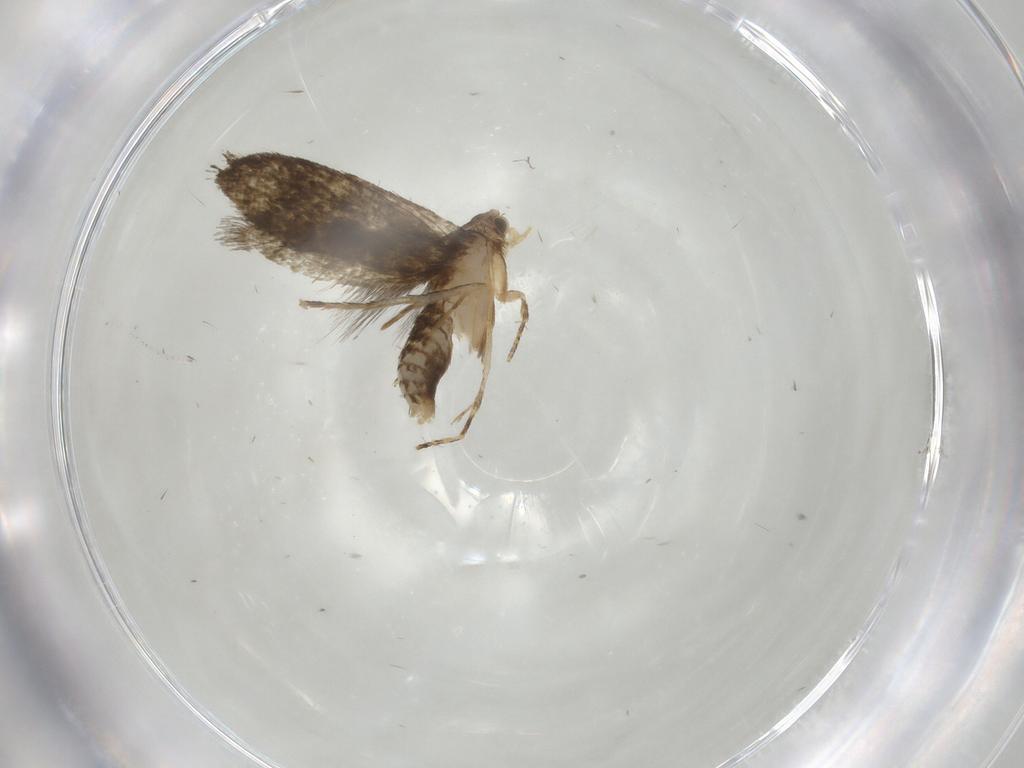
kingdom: Animalia
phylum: Arthropoda
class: Insecta
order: Lepidoptera
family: Tineidae
